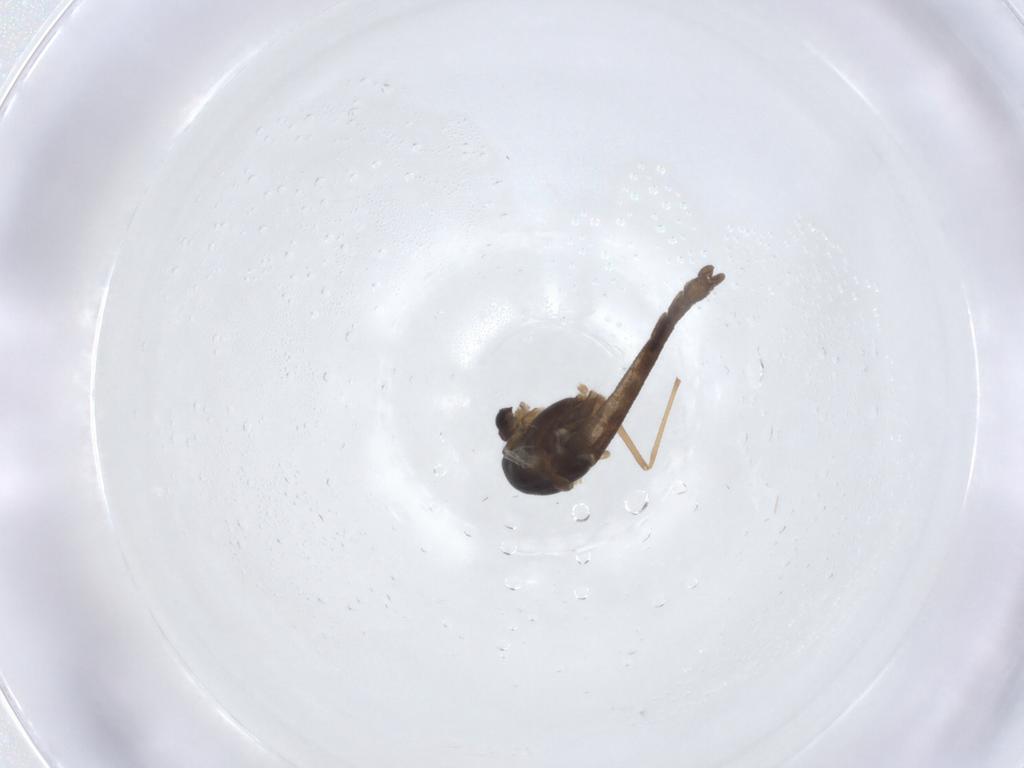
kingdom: Animalia
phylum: Arthropoda
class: Insecta
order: Diptera
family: Chironomidae
